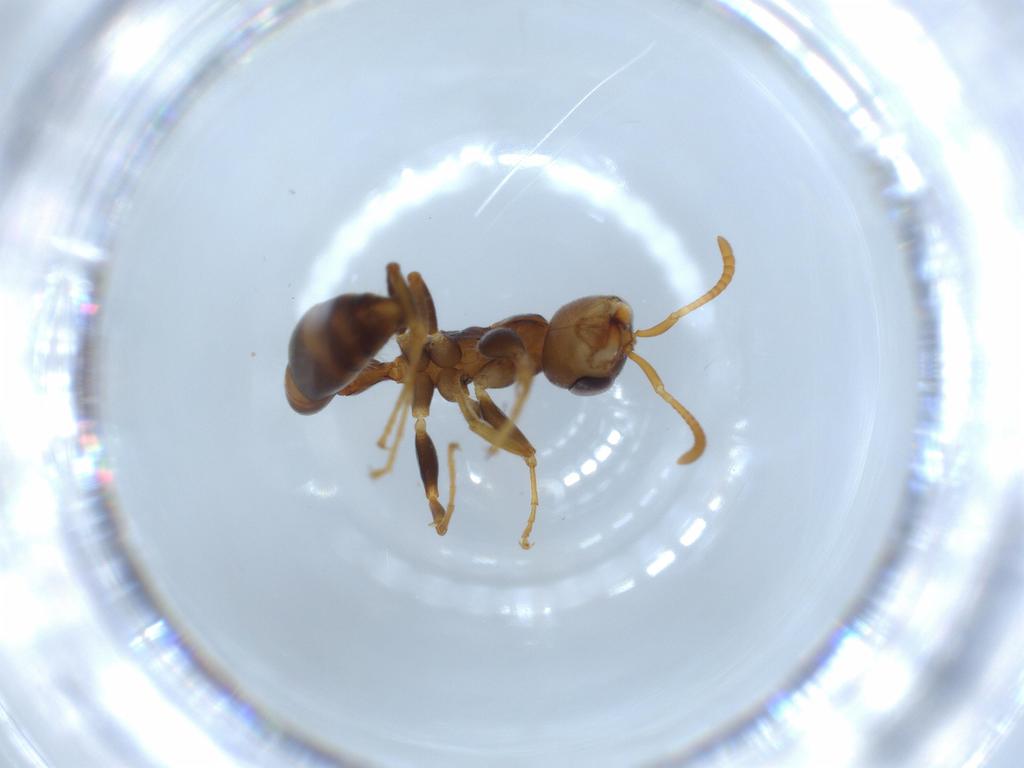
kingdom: Animalia
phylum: Arthropoda
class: Insecta
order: Hymenoptera
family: Formicidae
